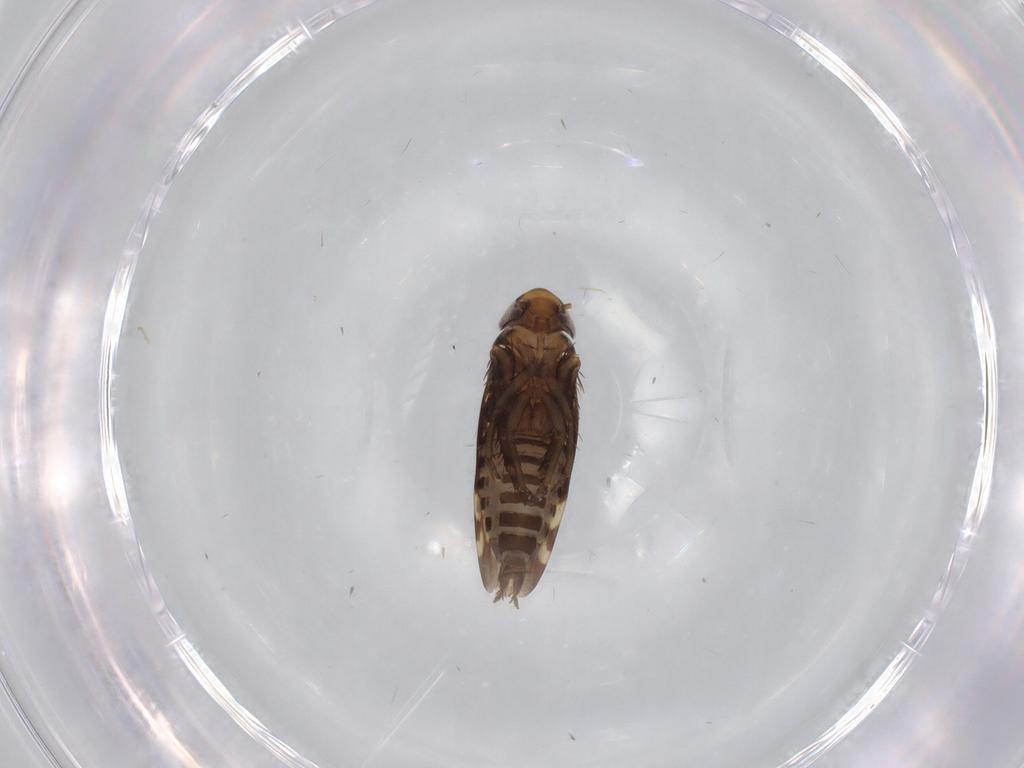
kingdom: Animalia
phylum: Arthropoda
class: Insecta
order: Hemiptera
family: Cicadellidae
